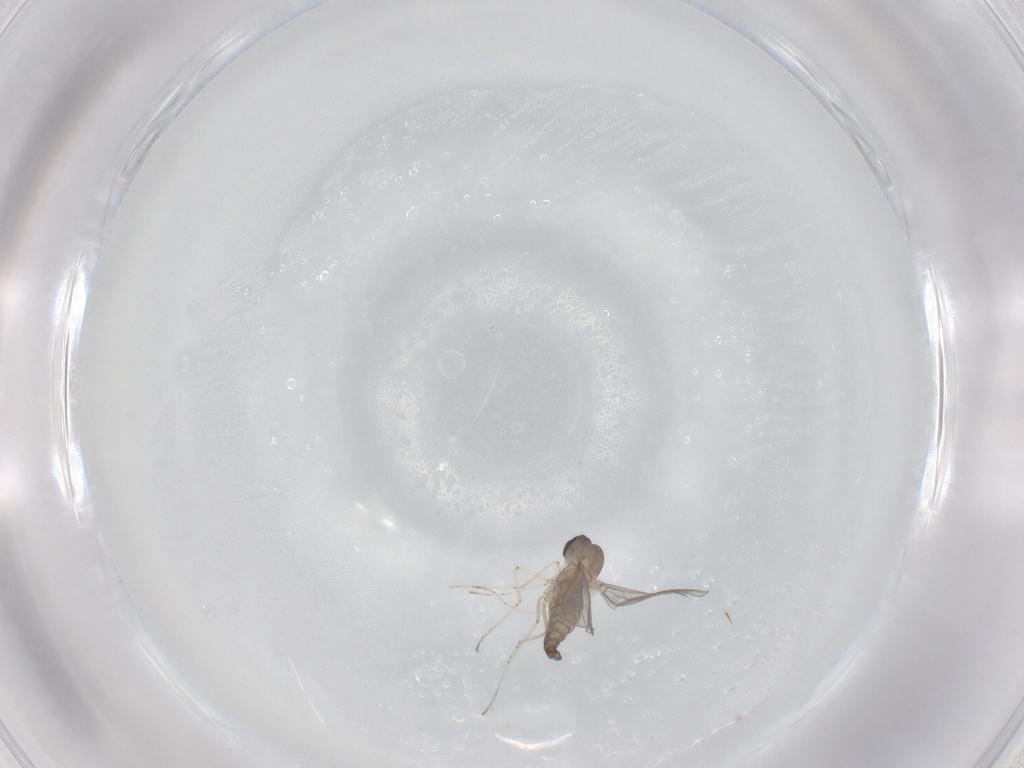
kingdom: Animalia
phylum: Arthropoda
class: Insecta
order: Diptera
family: Cecidomyiidae
